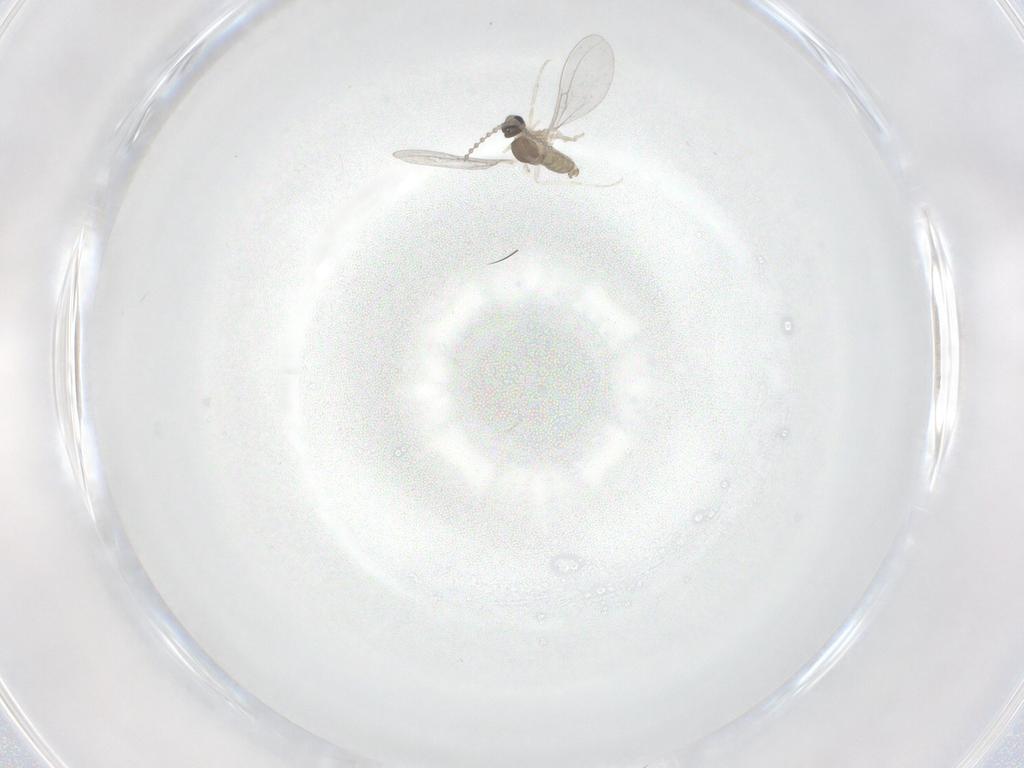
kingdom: Animalia
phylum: Arthropoda
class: Insecta
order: Diptera
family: Cecidomyiidae
